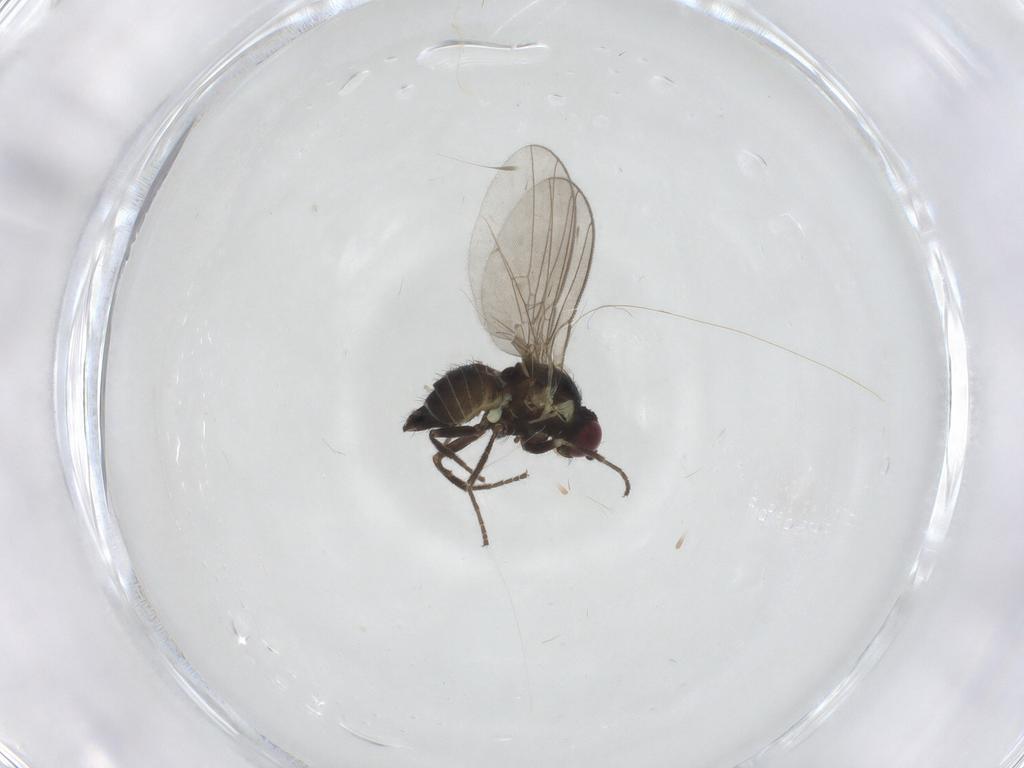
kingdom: Animalia
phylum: Arthropoda
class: Insecta
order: Diptera
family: Agromyzidae
